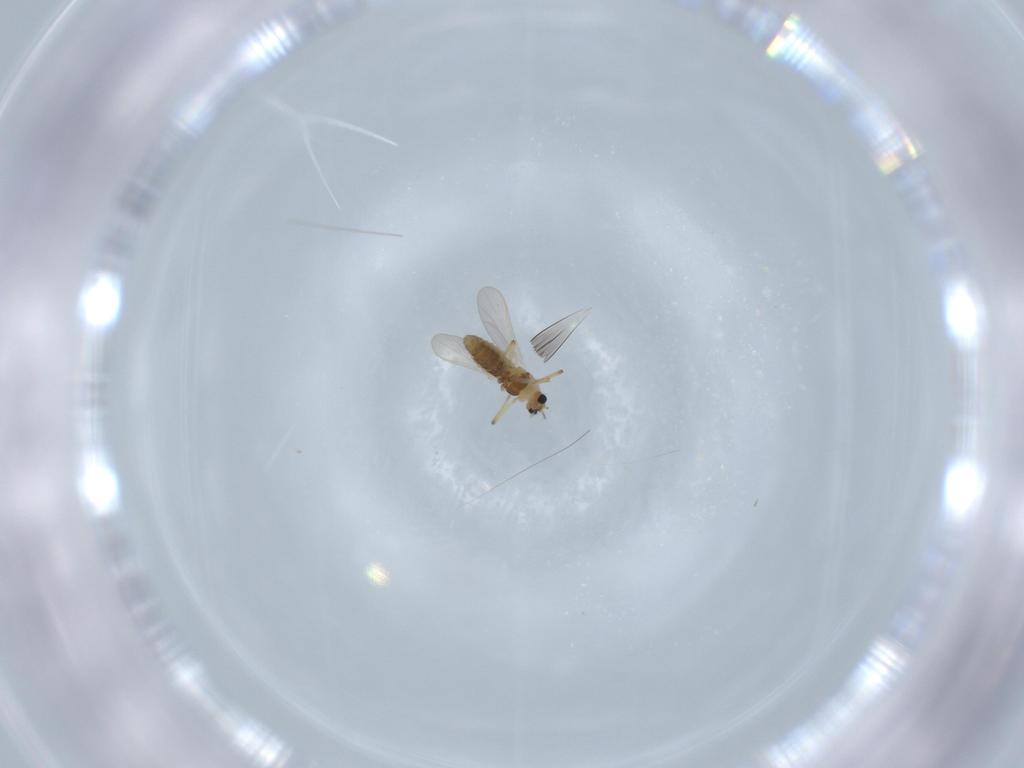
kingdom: Animalia
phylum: Arthropoda
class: Insecta
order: Diptera
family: Chironomidae
